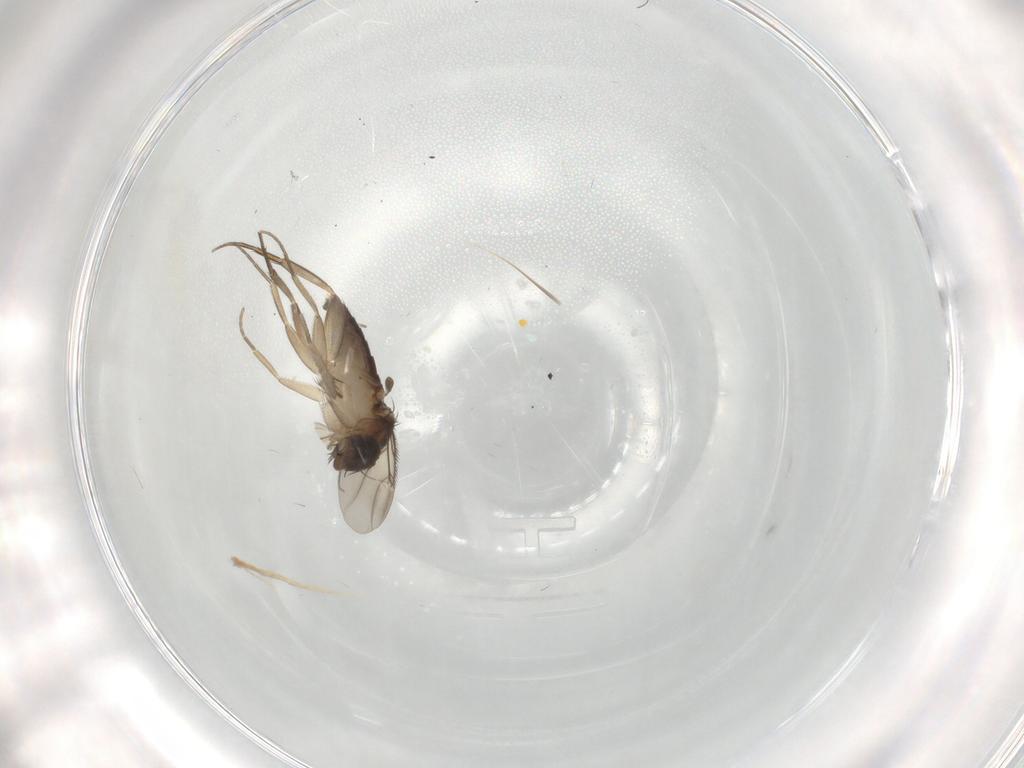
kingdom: Animalia
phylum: Arthropoda
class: Insecta
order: Diptera
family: Phoridae
